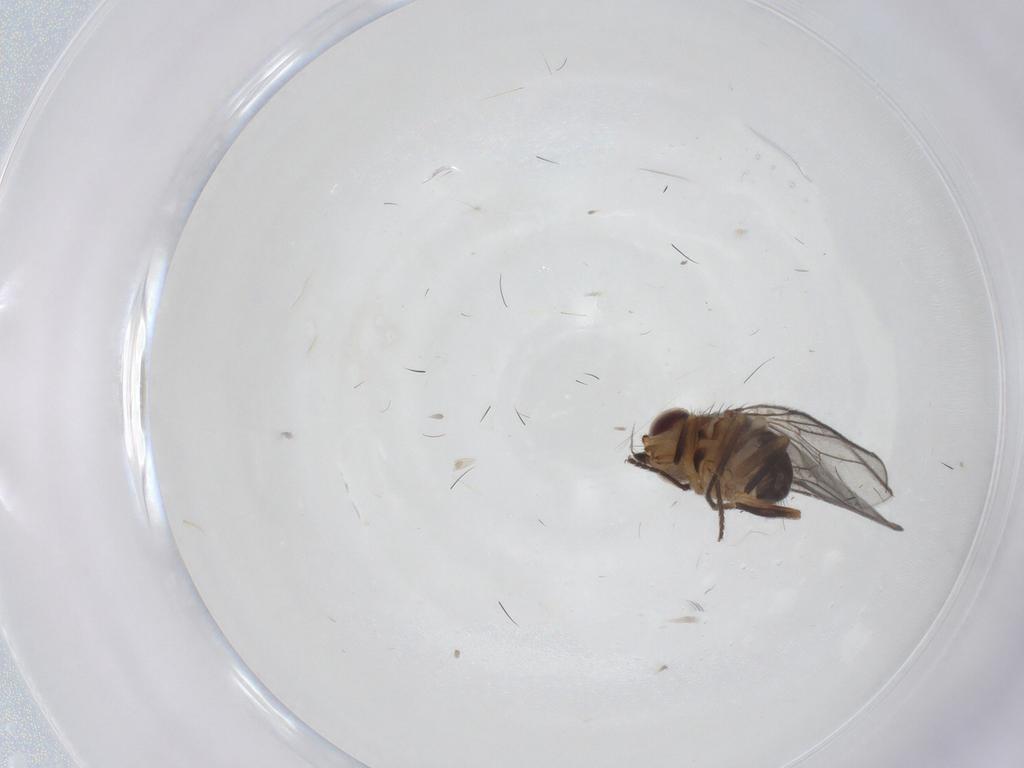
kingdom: Animalia
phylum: Arthropoda
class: Insecta
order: Diptera
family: Chloropidae
